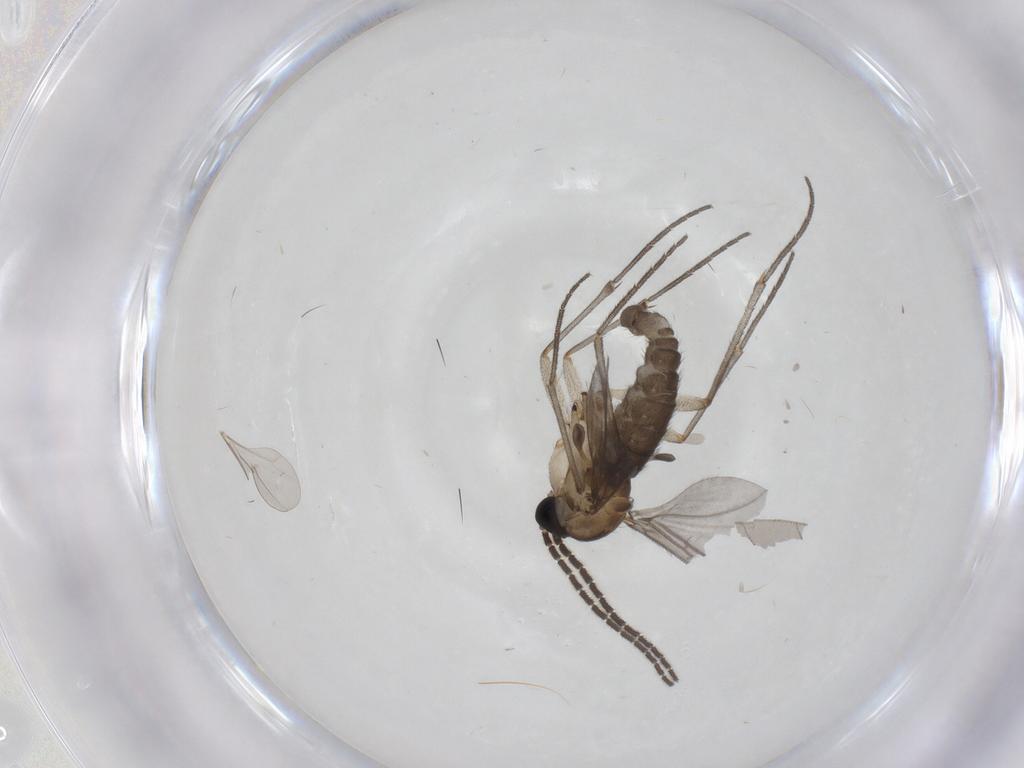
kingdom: Animalia
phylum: Arthropoda
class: Insecta
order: Diptera
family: Sciaridae
